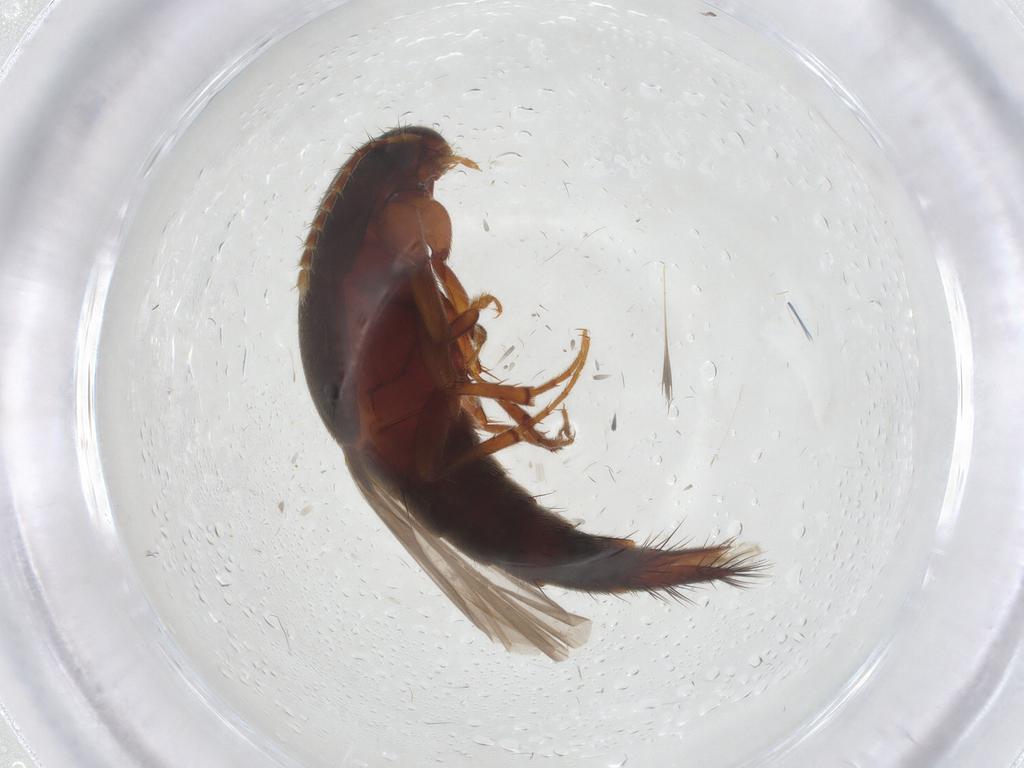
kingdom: Animalia
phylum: Arthropoda
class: Insecta
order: Coleoptera
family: Staphylinidae
